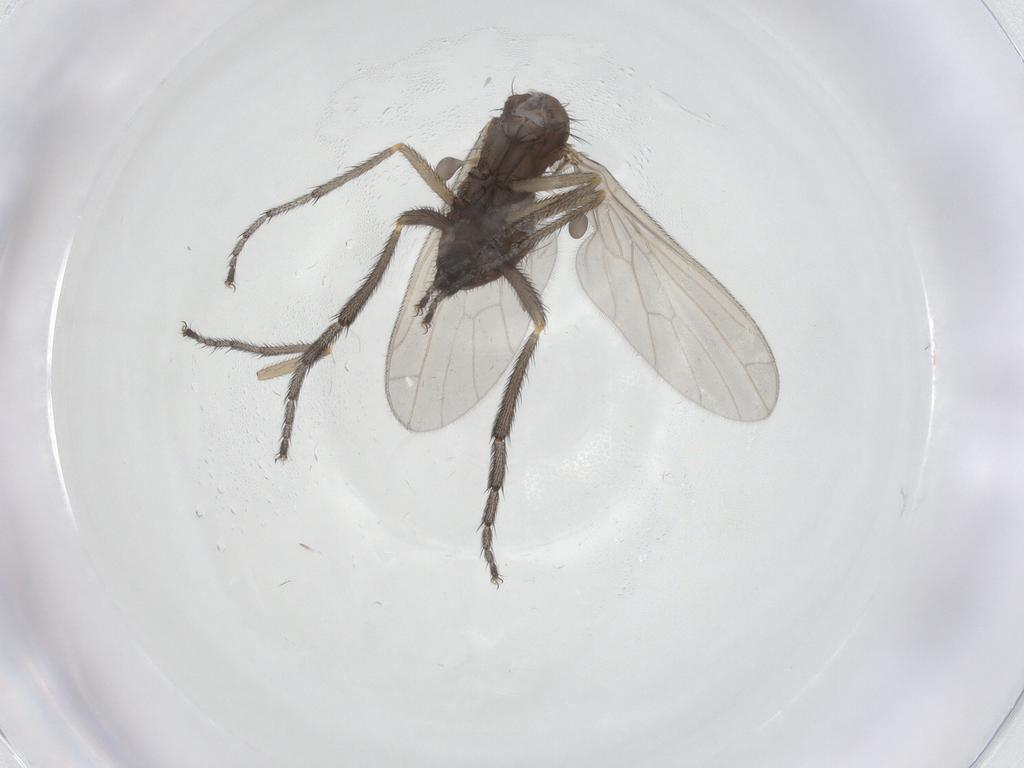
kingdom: Animalia
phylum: Arthropoda
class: Insecta
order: Diptera
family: Empididae
